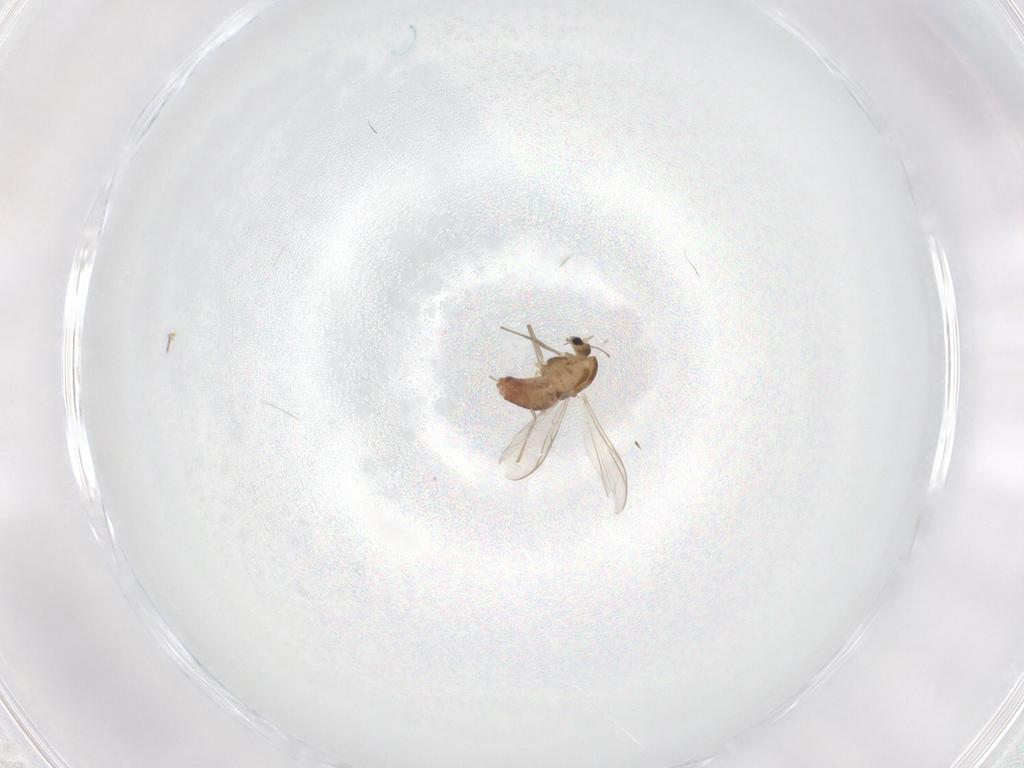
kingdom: Animalia
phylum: Arthropoda
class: Insecta
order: Diptera
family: Chironomidae
